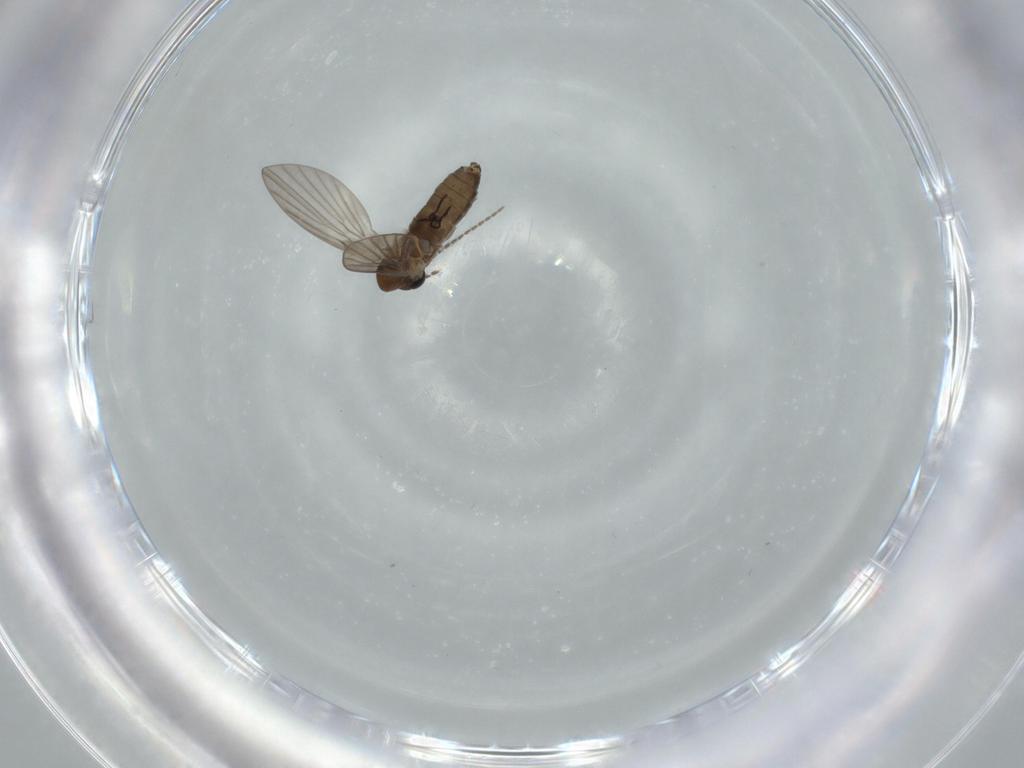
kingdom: Animalia
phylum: Arthropoda
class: Insecta
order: Diptera
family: Psychodidae
